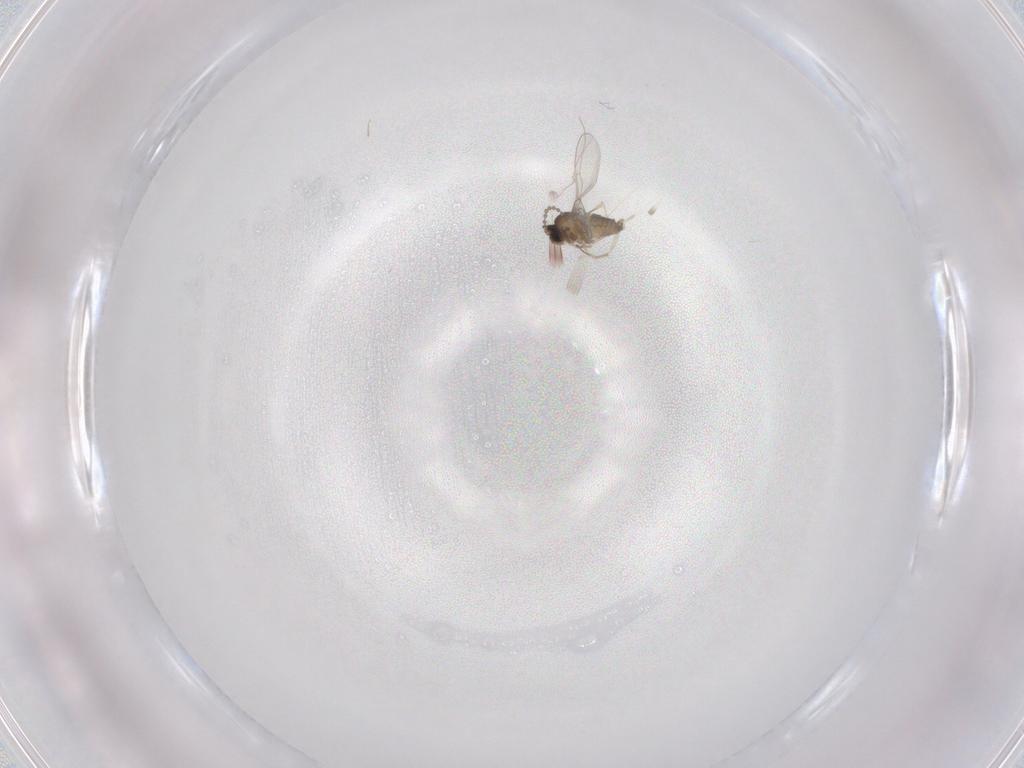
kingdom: Animalia
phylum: Arthropoda
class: Insecta
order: Diptera
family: Cecidomyiidae
